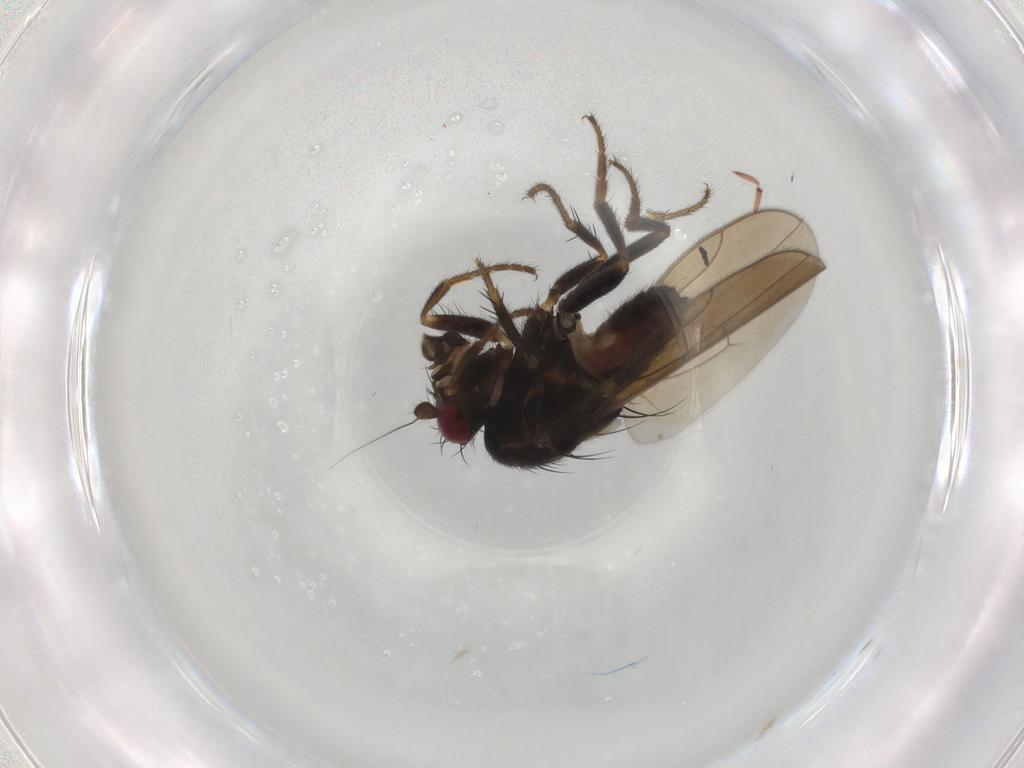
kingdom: Animalia
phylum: Arthropoda
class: Insecta
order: Diptera
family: Sphaeroceridae
